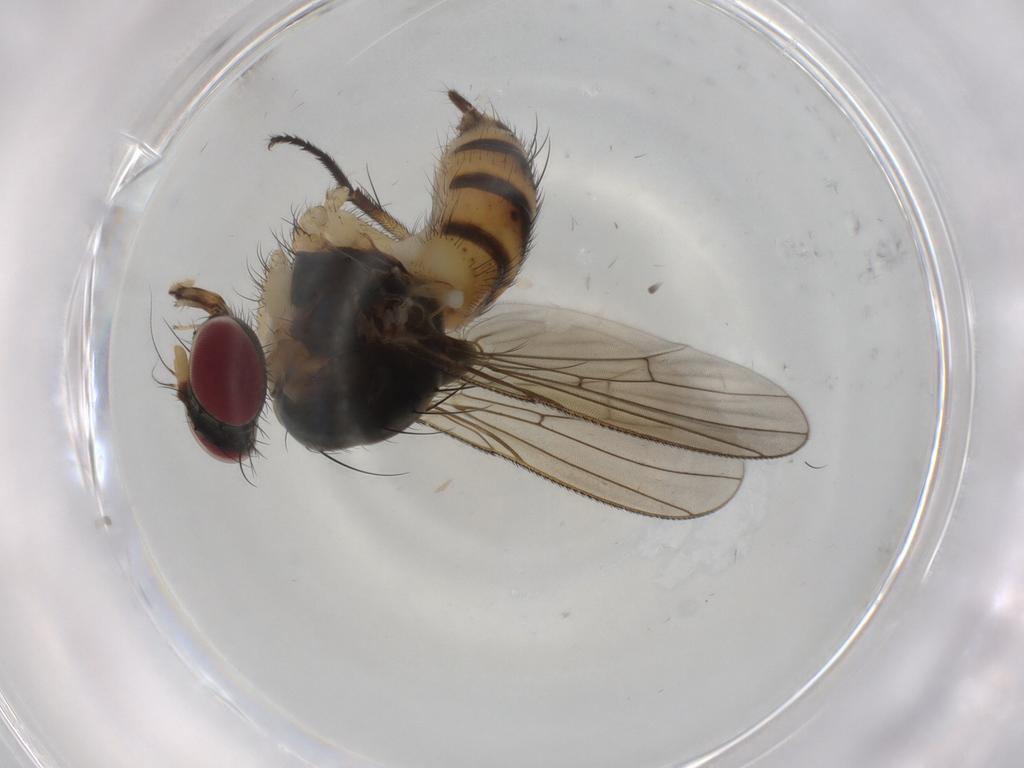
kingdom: Animalia
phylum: Arthropoda
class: Insecta
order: Diptera
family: Muscidae
